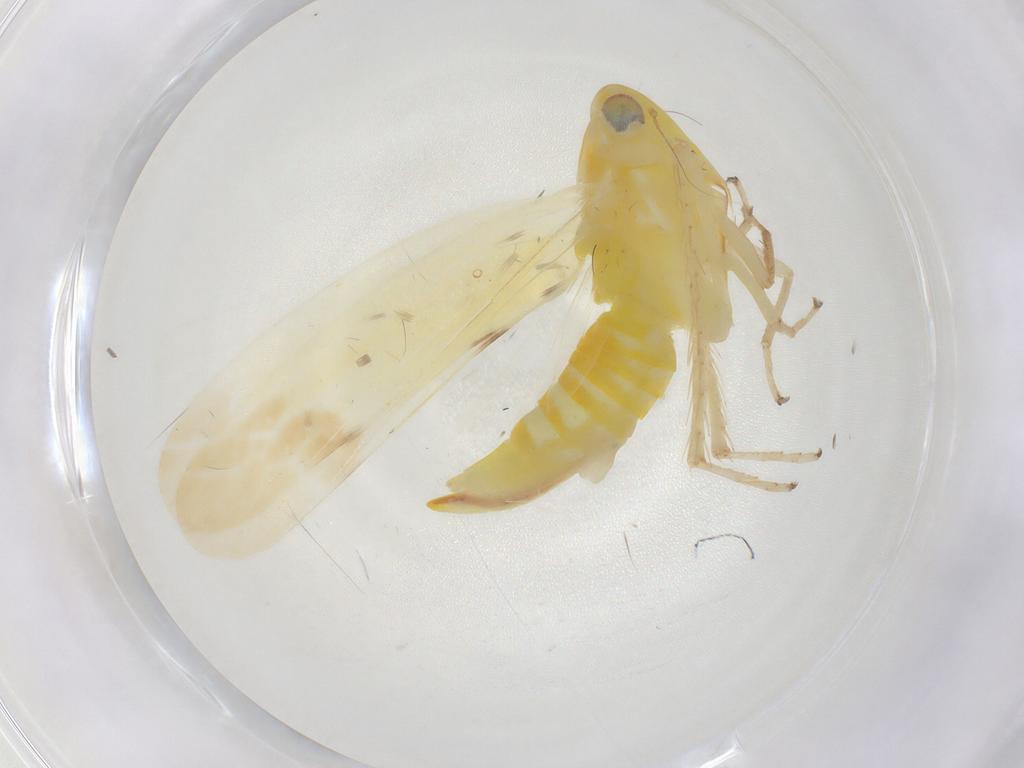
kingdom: Animalia
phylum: Arthropoda
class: Insecta
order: Hemiptera
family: Cicadellidae
